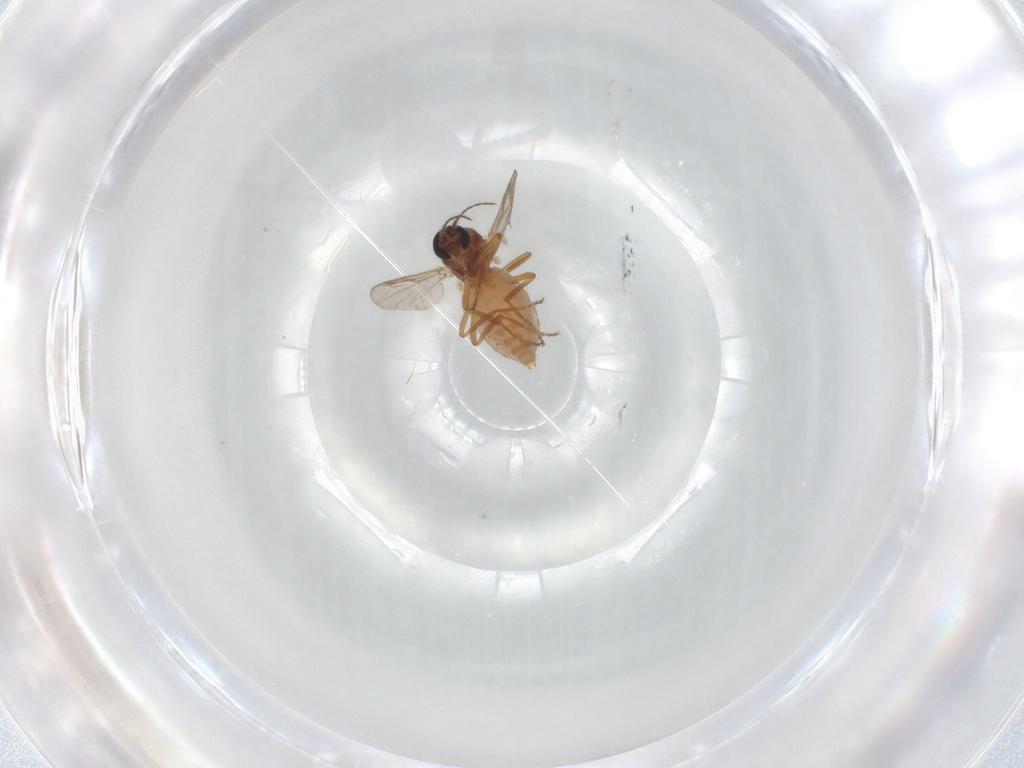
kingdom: Animalia
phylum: Arthropoda
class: Insecta
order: Diptera
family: Ceratopogonidae
